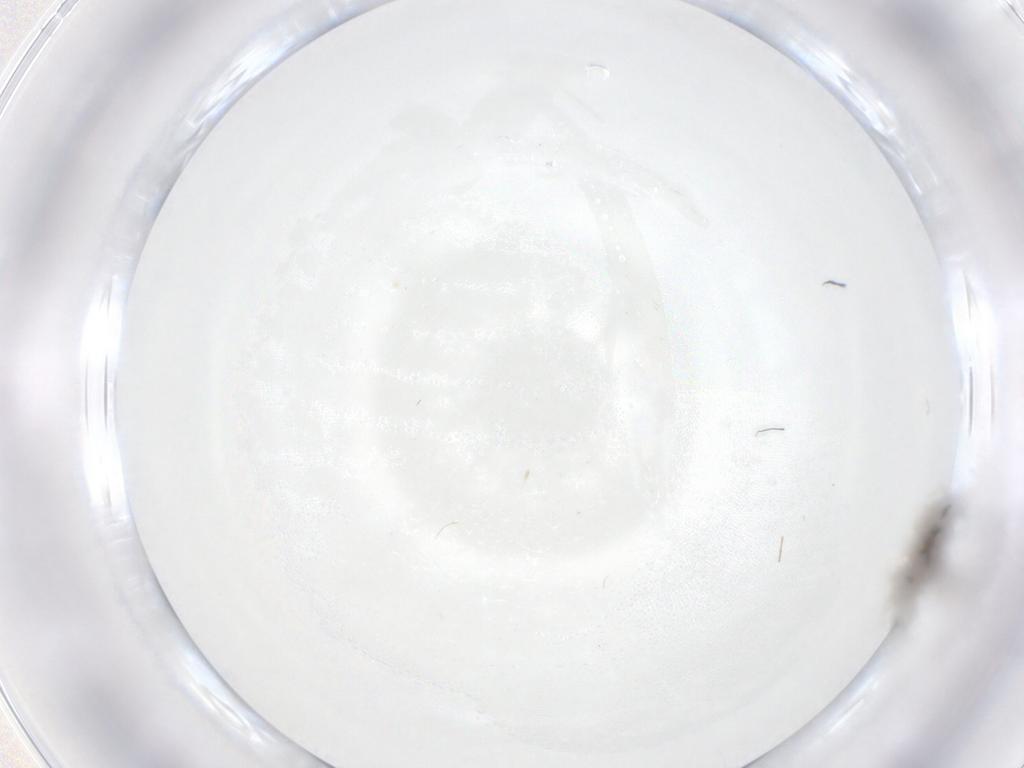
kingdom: Animalia
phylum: Arthropoda
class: Insecta
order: Diptera
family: Cecidomyiidae
